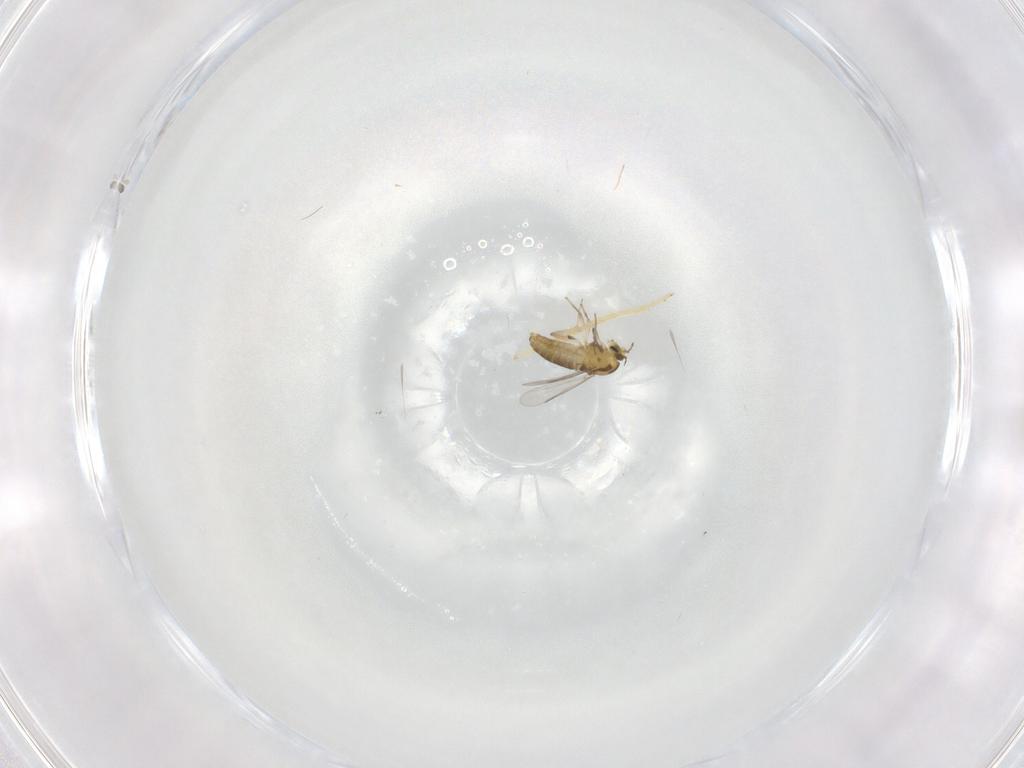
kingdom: Animalia
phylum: Arthropoda
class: Insecta
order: Diptera
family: Chironomidae
